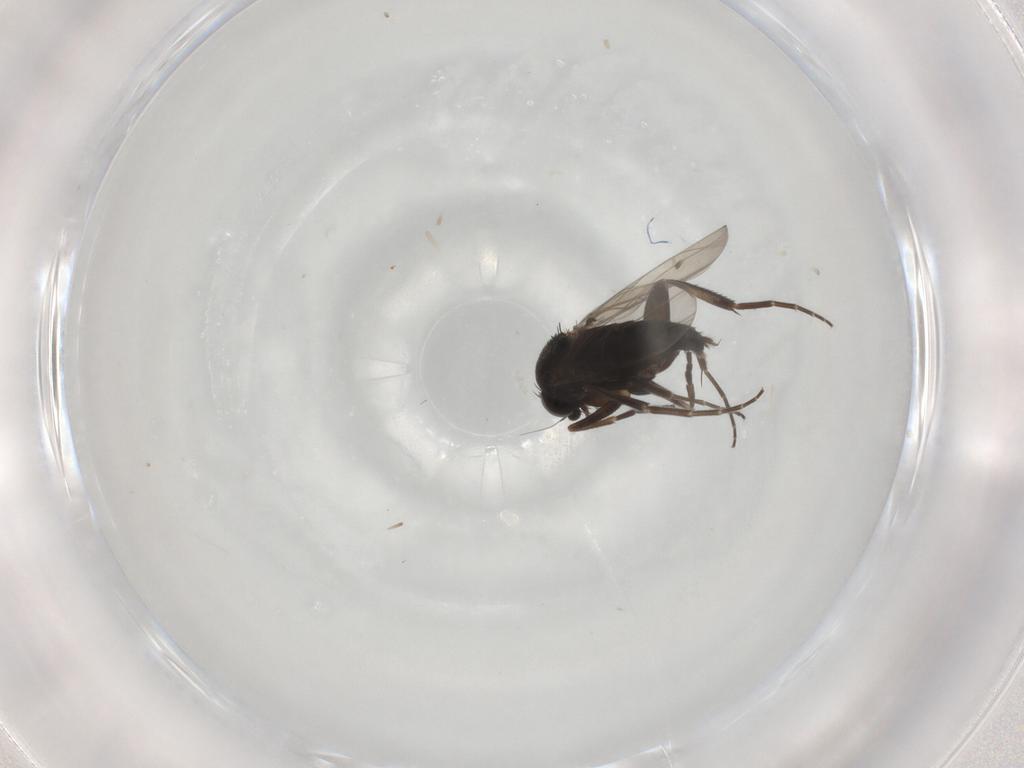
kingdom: Animalia
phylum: Arthropoda
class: Insecta
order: Diptera
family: Phoridae
